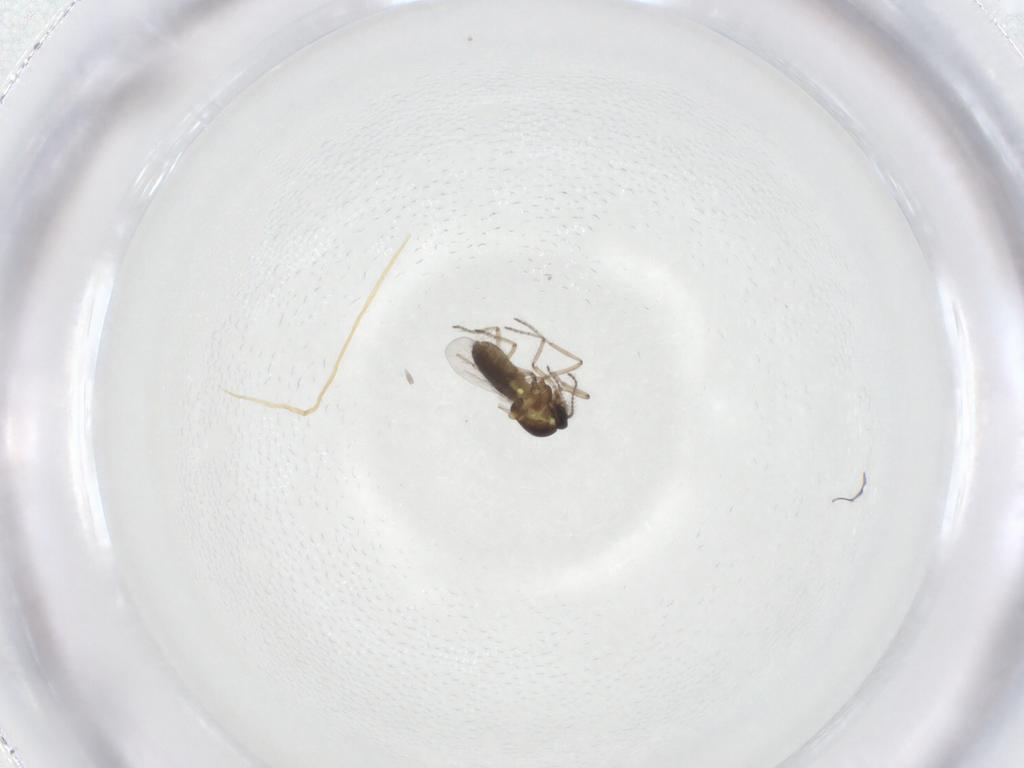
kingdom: Animalia
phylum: Arthropoda
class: Insecta
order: Diptera
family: Ceratopogonidae
